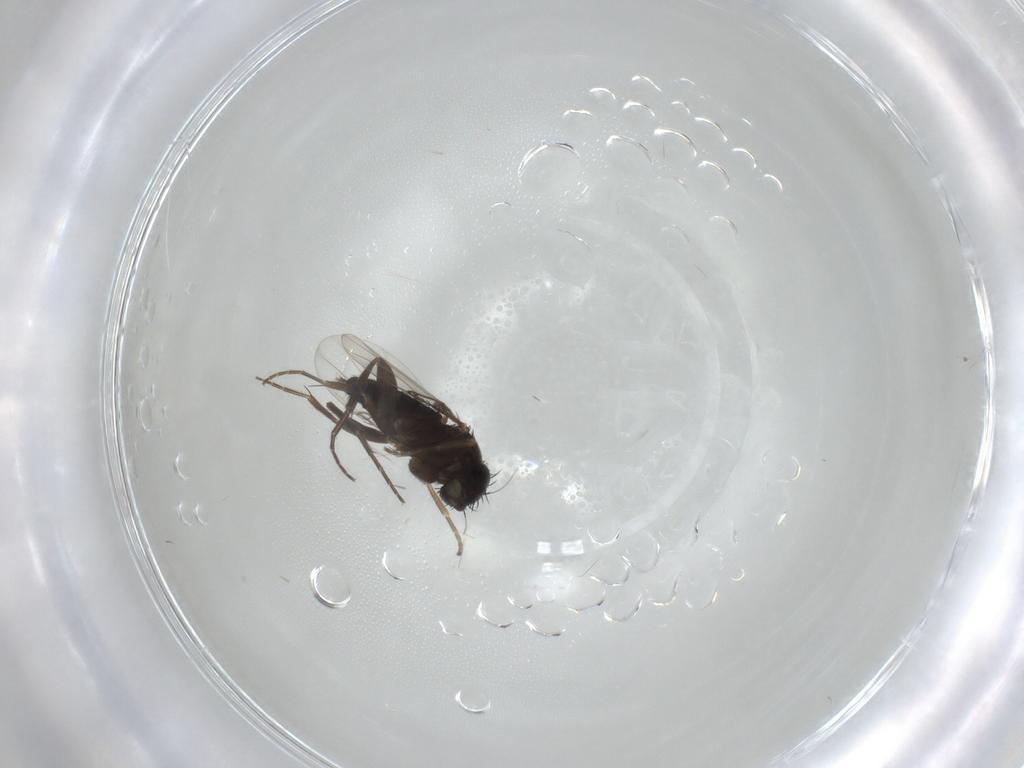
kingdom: Animalia
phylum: Arthropoda
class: Insecta
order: Diptera
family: Phoridae
